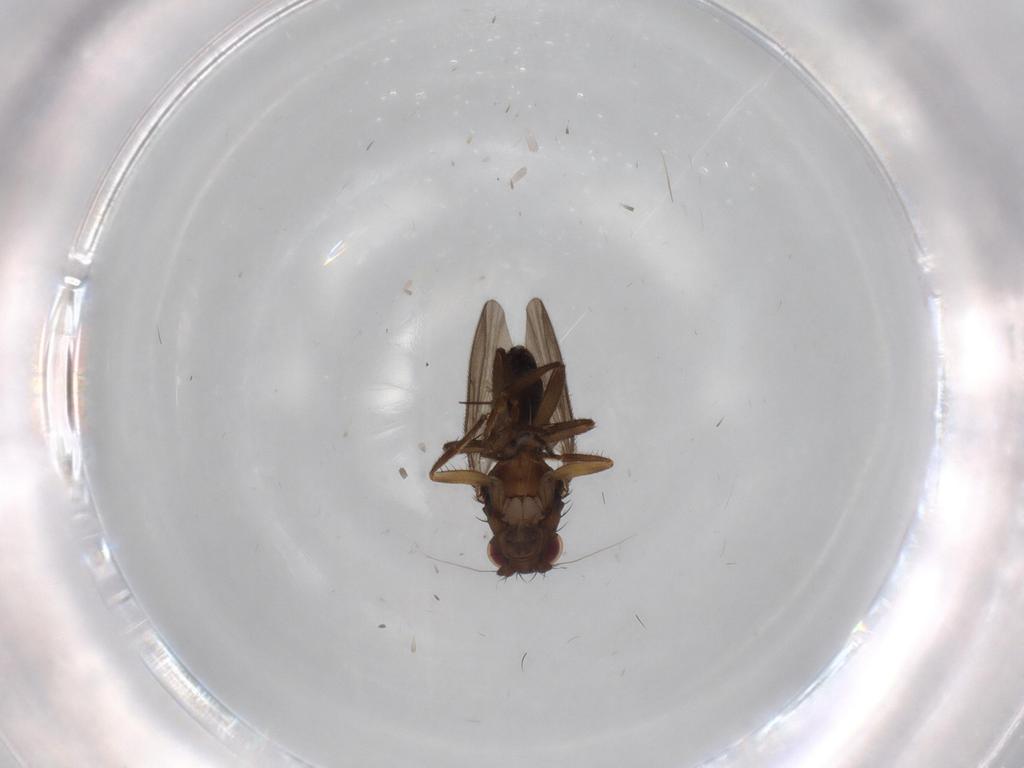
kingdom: Animalia
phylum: Arthropoda
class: Insecta
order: Diptera
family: Sphaeroceridae
